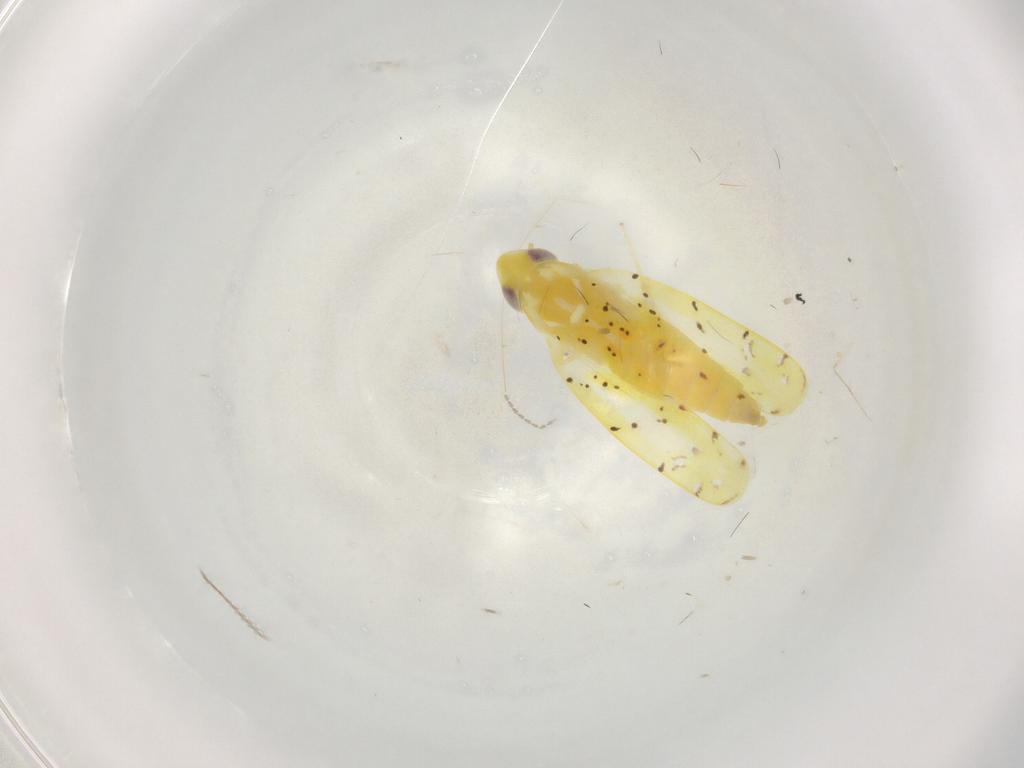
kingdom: Animalia
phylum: Arthropoda
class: Insecta
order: Hemiptera
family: Cicadellidae
